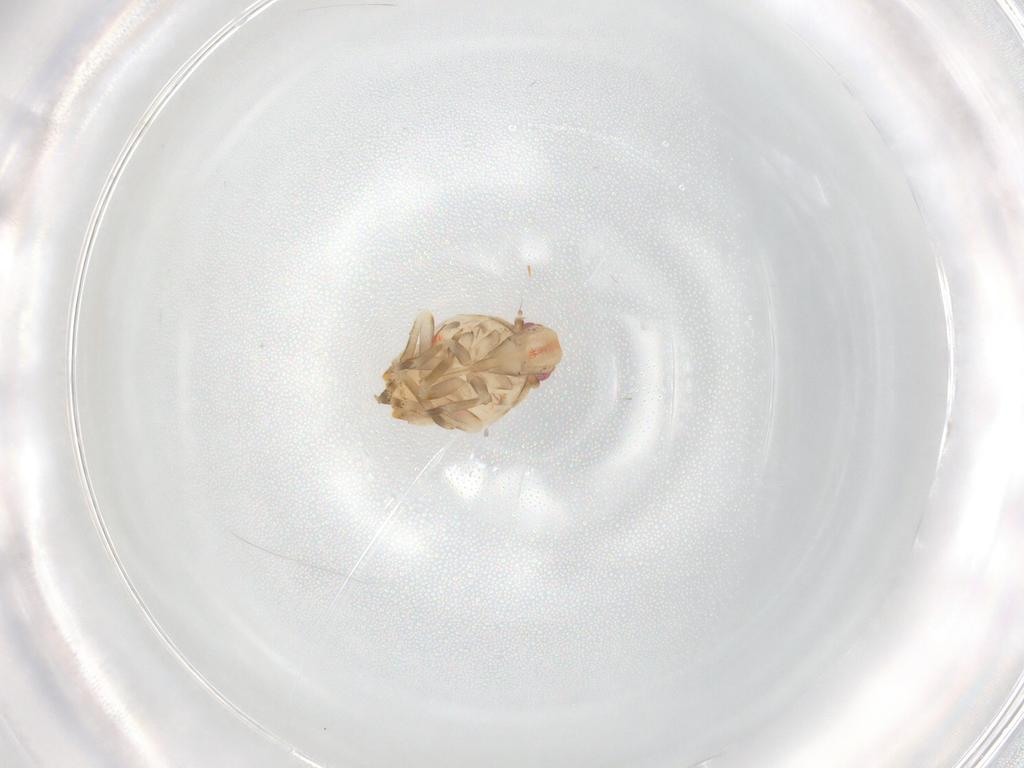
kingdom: Animalia
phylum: Arthropoda
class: Insecta
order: Hemiptera
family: Flatidae
